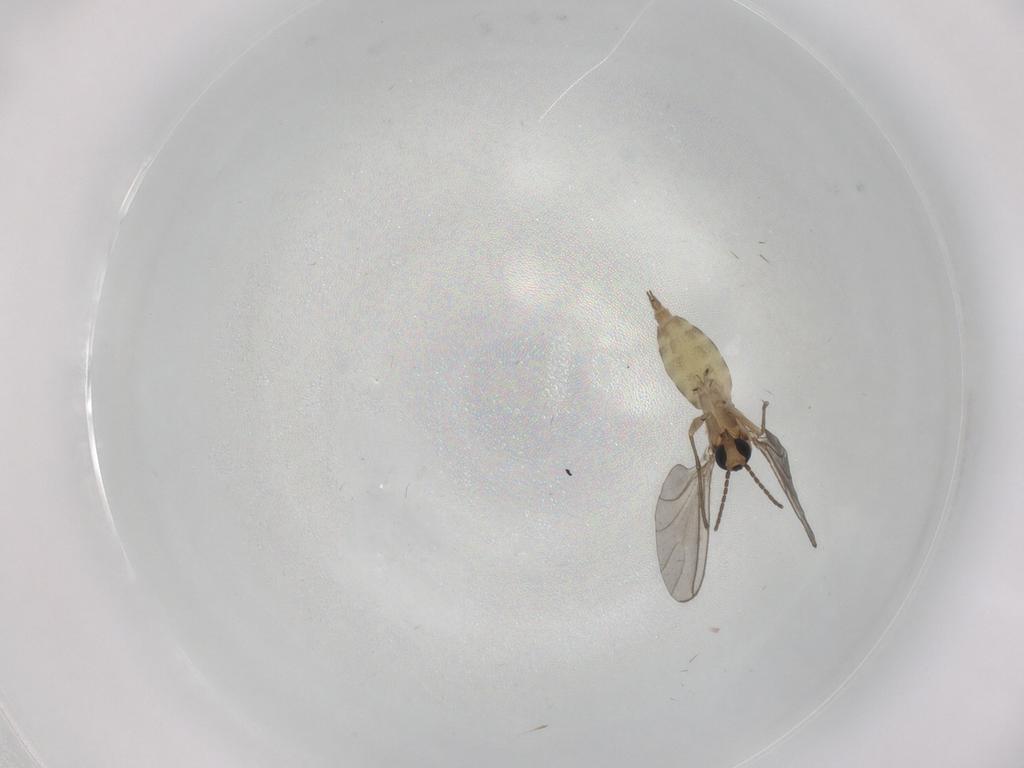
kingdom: Animalia
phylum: Arthropoda
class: Insecta
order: Diptera
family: Sciaridae
